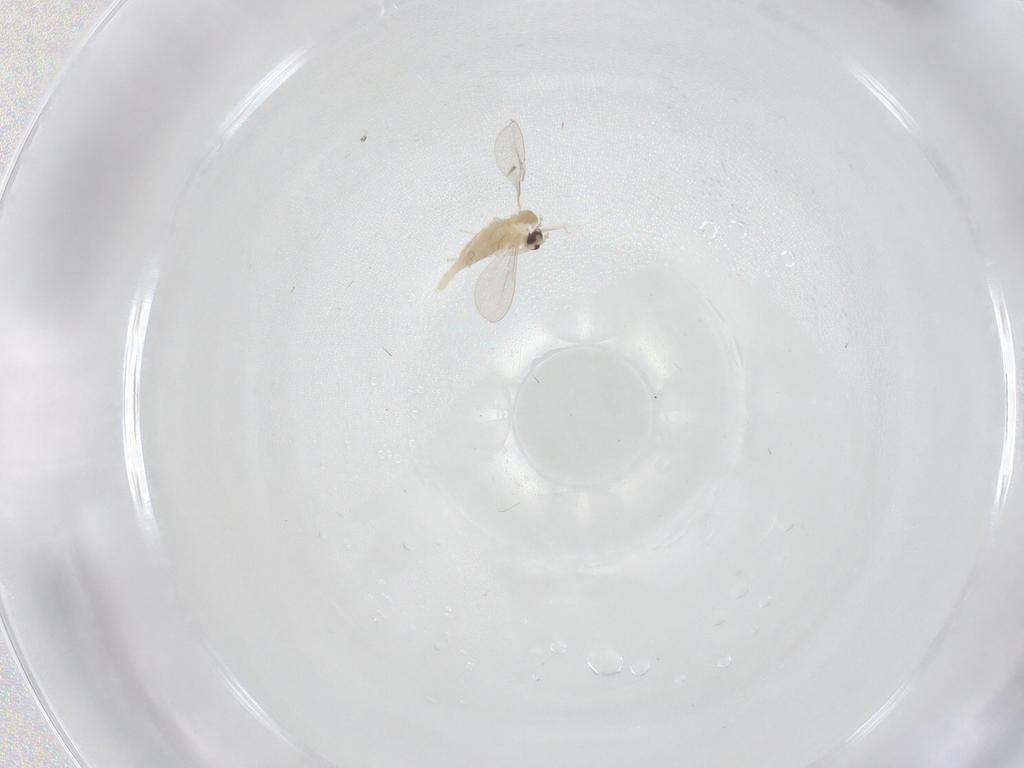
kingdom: Animalia
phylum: Arthropoda
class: Insecta
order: Diptera
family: Cecidomyiidae
